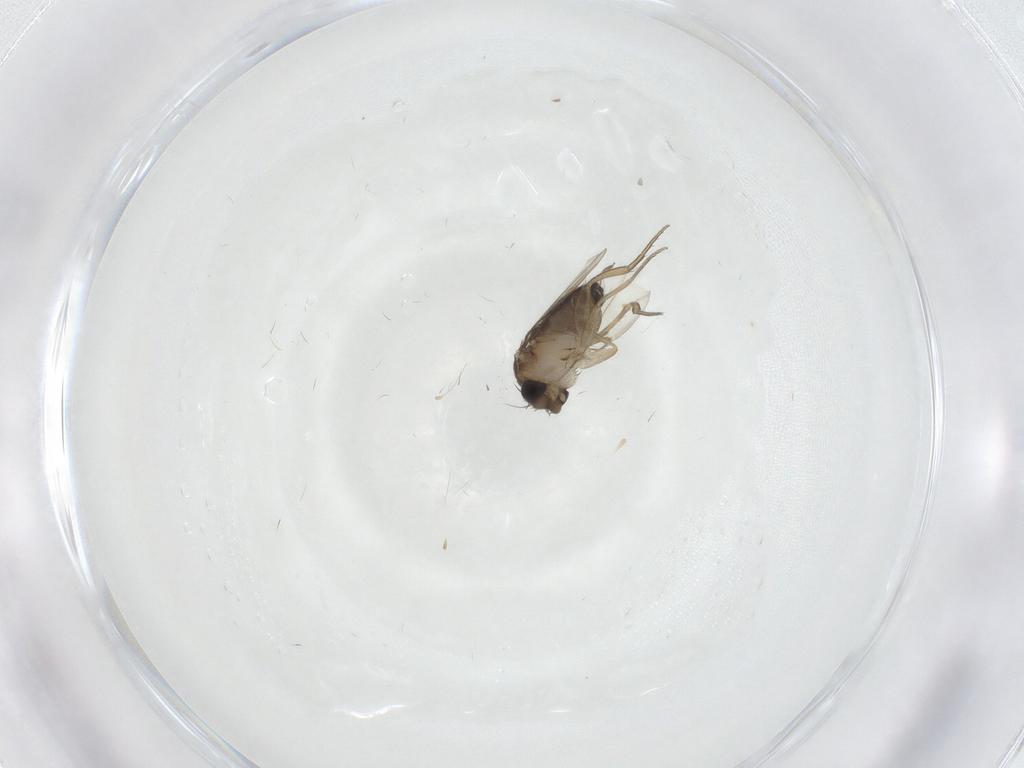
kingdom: Animalia
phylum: Arthropoda
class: Insecta
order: Diptera
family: Ceratopogonidae
